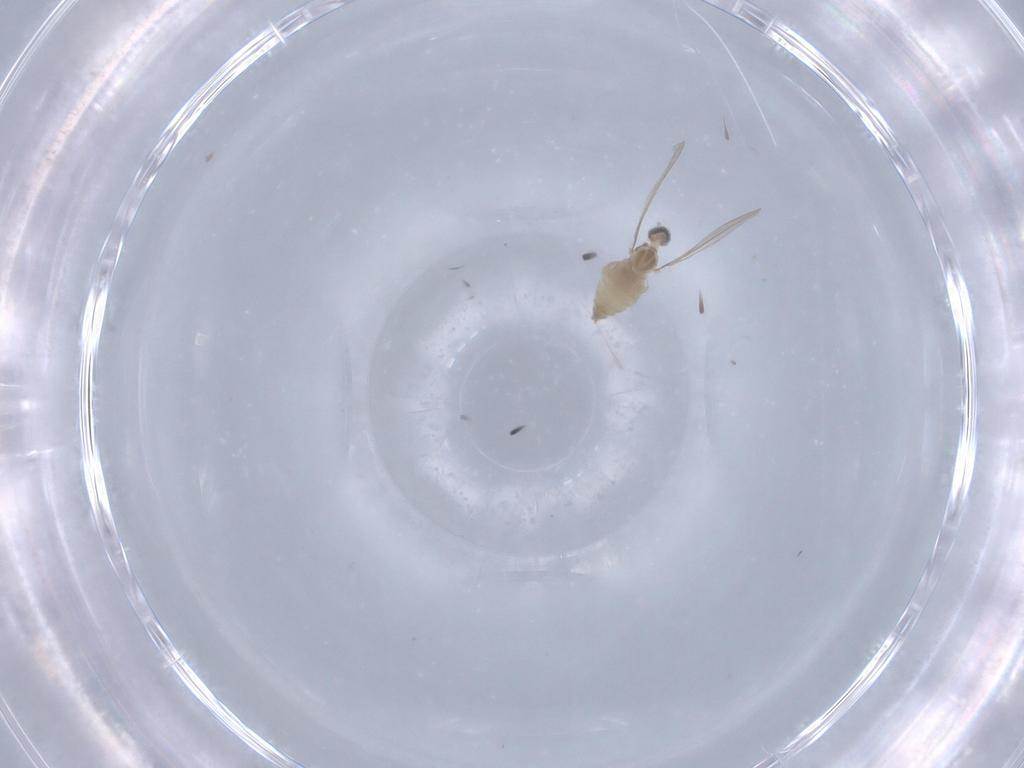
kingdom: Animalia
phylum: Arthropoda
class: Insecta
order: Diptera
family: Cecidomyiidae
